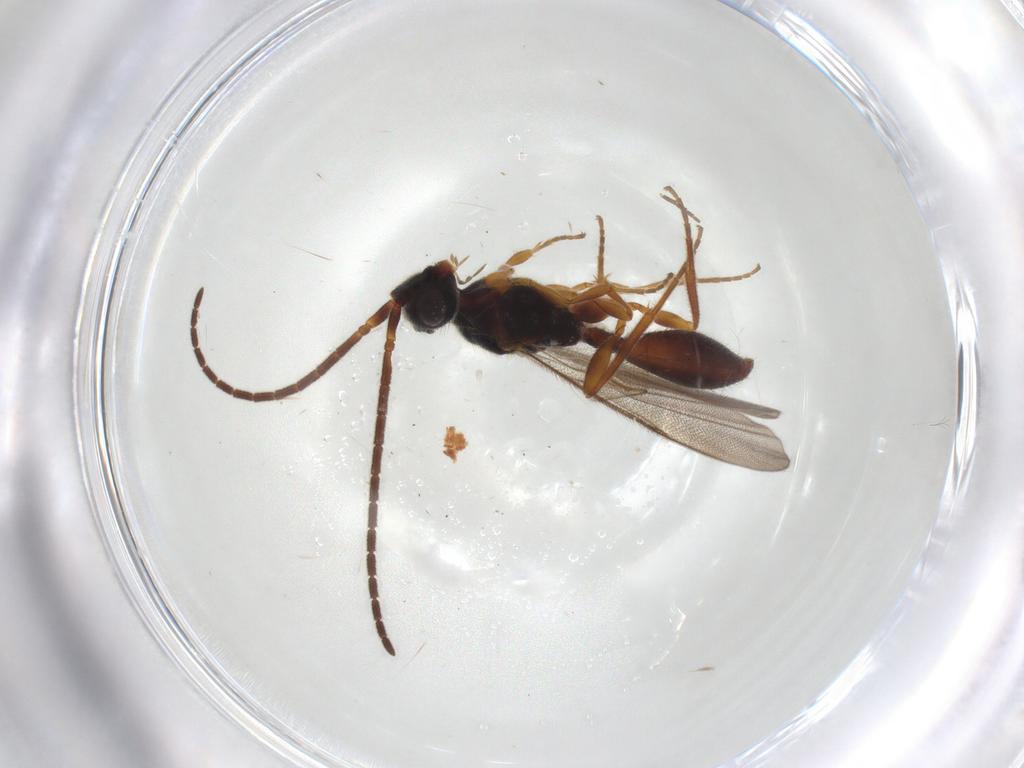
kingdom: Animalia
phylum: Arthropoda
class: Insecta
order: Hymenoptera
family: Diapriidae
